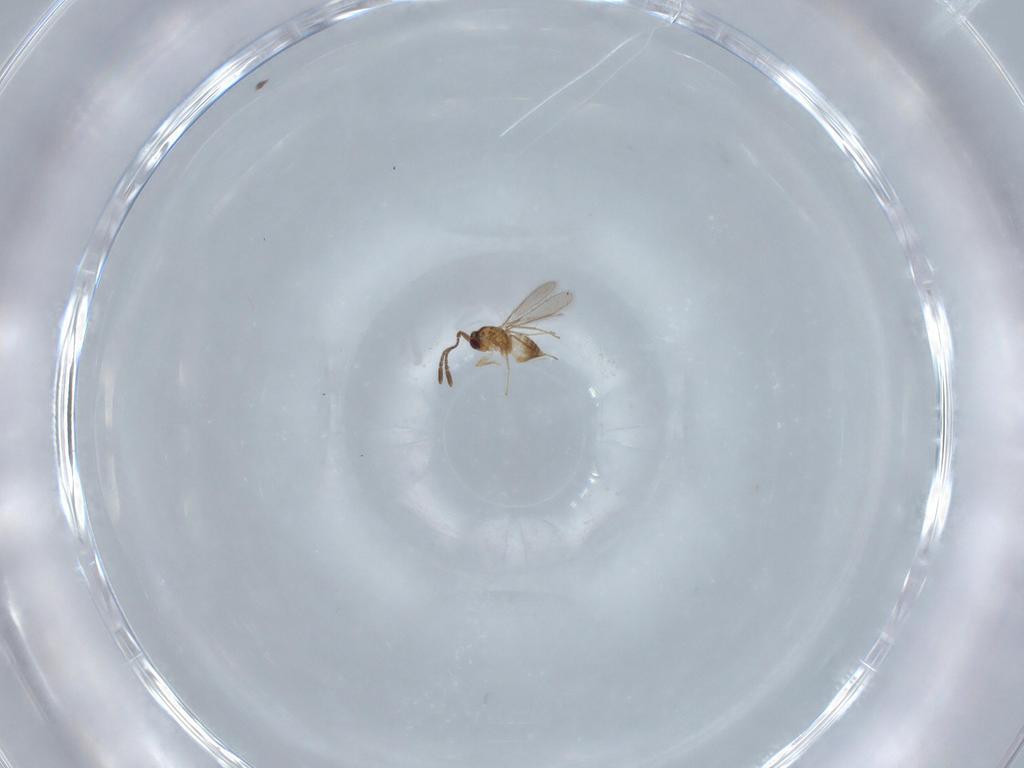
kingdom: Animalia
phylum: Arthropoda
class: Insecta
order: Hymenoptera
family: Mymaridae
